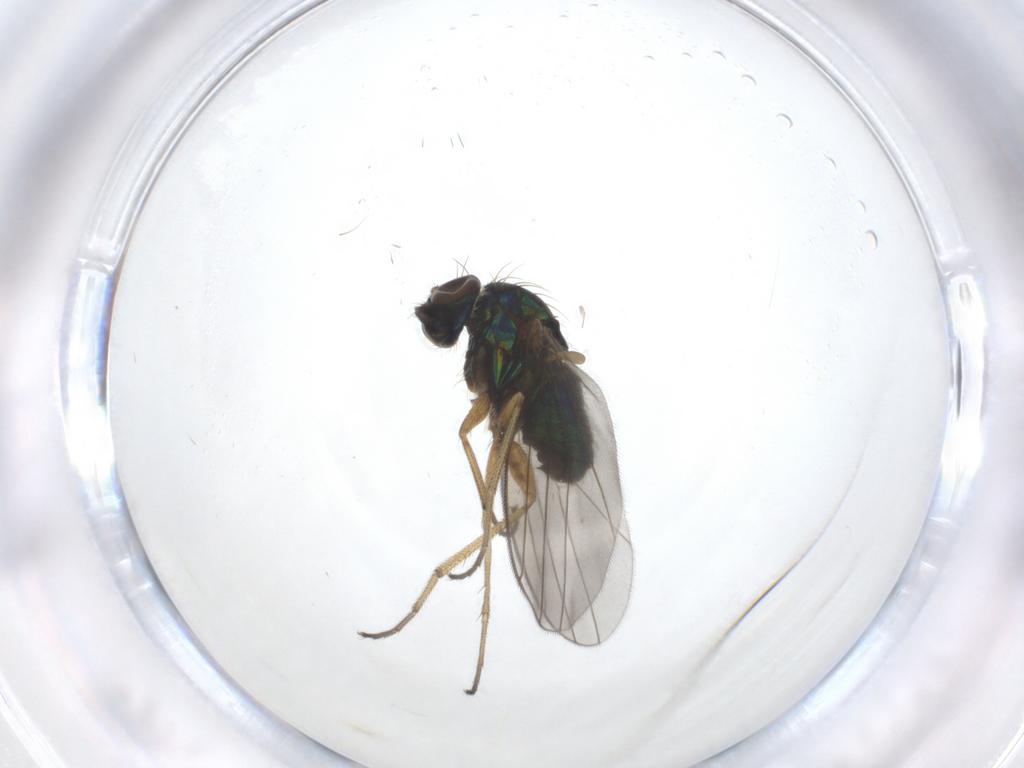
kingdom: Animalia
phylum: Arthropoda
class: Insecta
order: Diptera
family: Dolichopodidae
